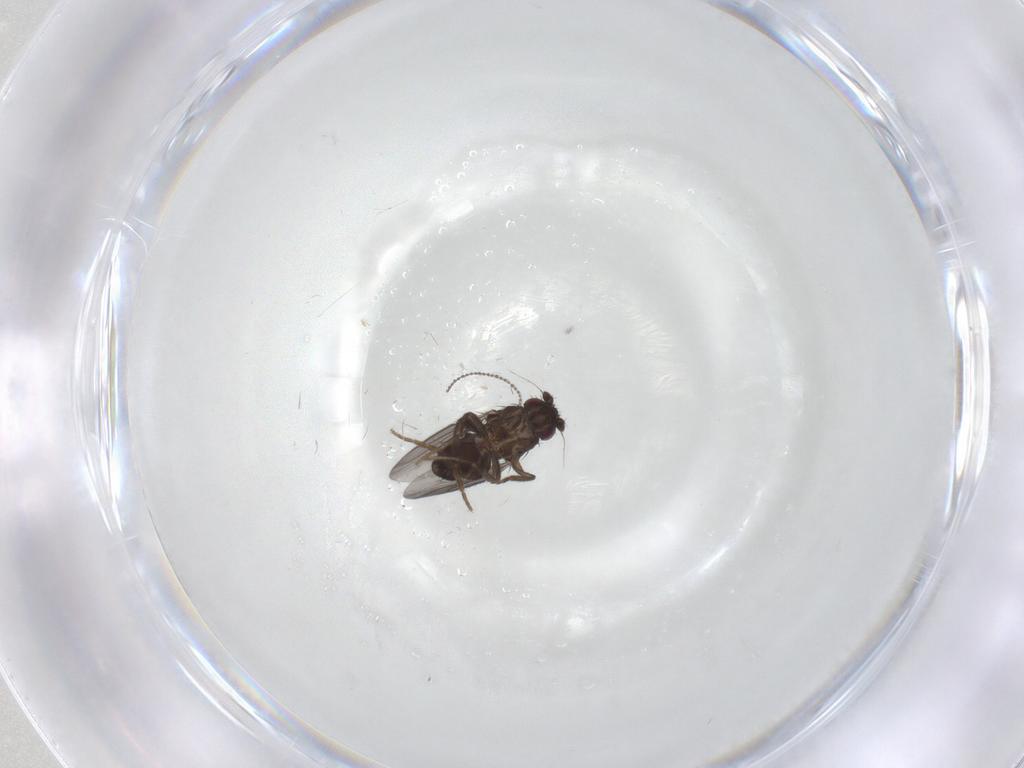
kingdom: Animalia
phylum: Arthropoda
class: Insecta
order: Diptera
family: Sphaeroceridae
